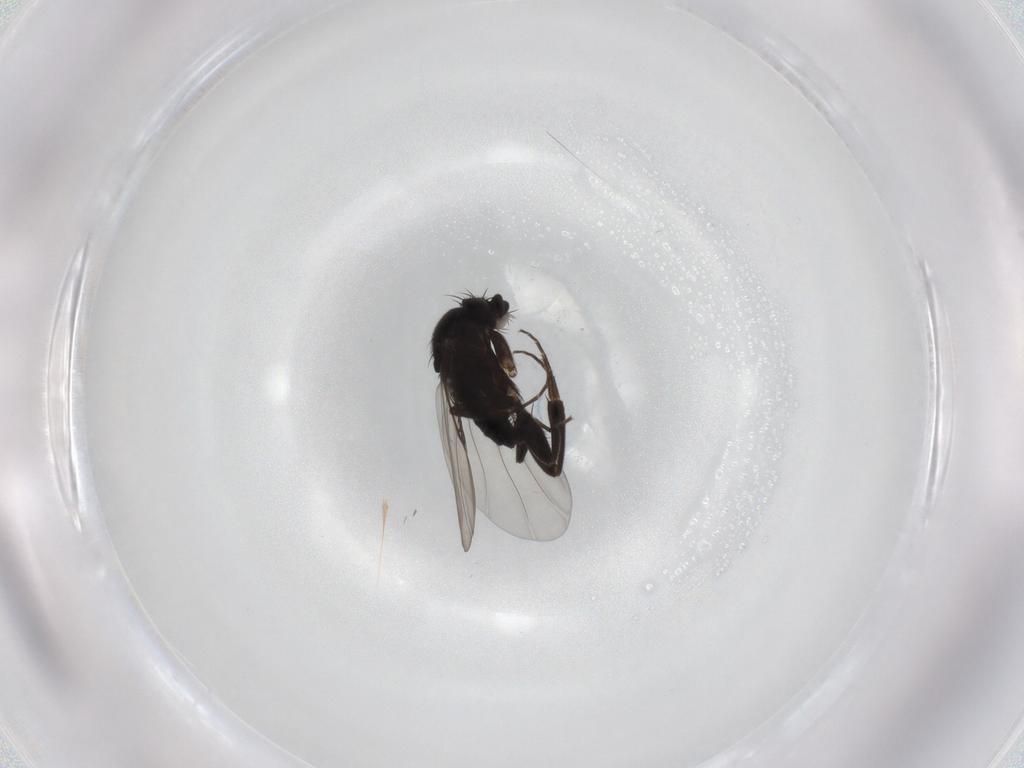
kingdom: Animalia
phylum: Arthropoda
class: Insecta
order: Diptera
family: Phoridae
